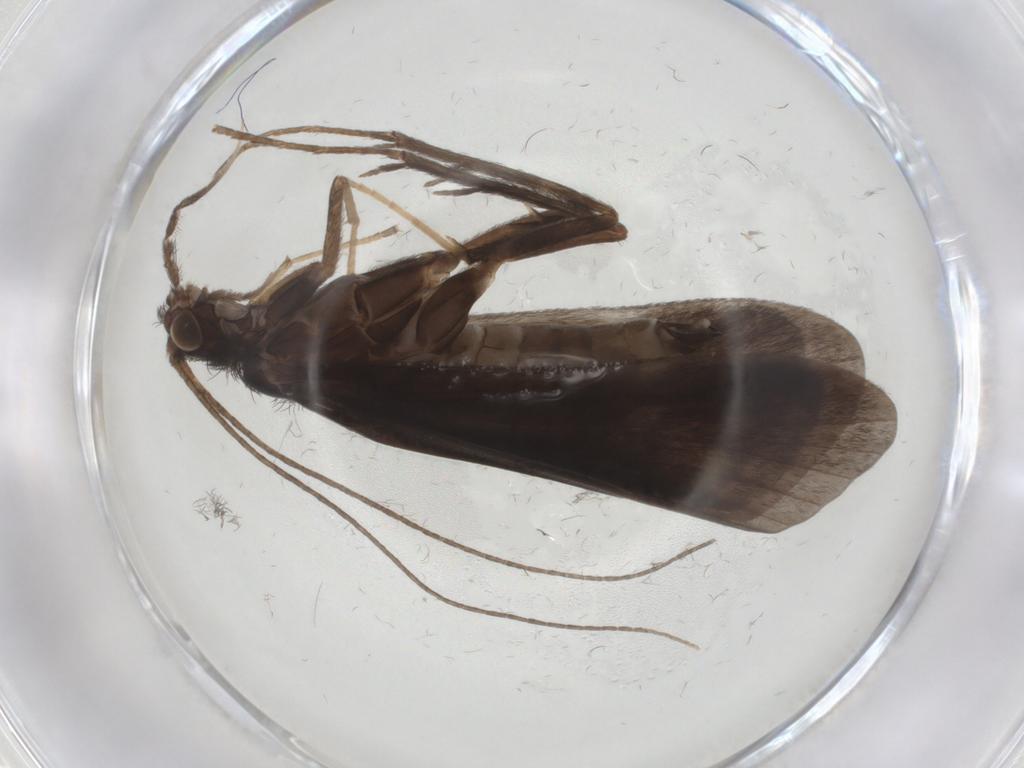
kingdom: Animalia
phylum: Arthropoda
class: Insecta
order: Trichoptera
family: Hydropsychidae
